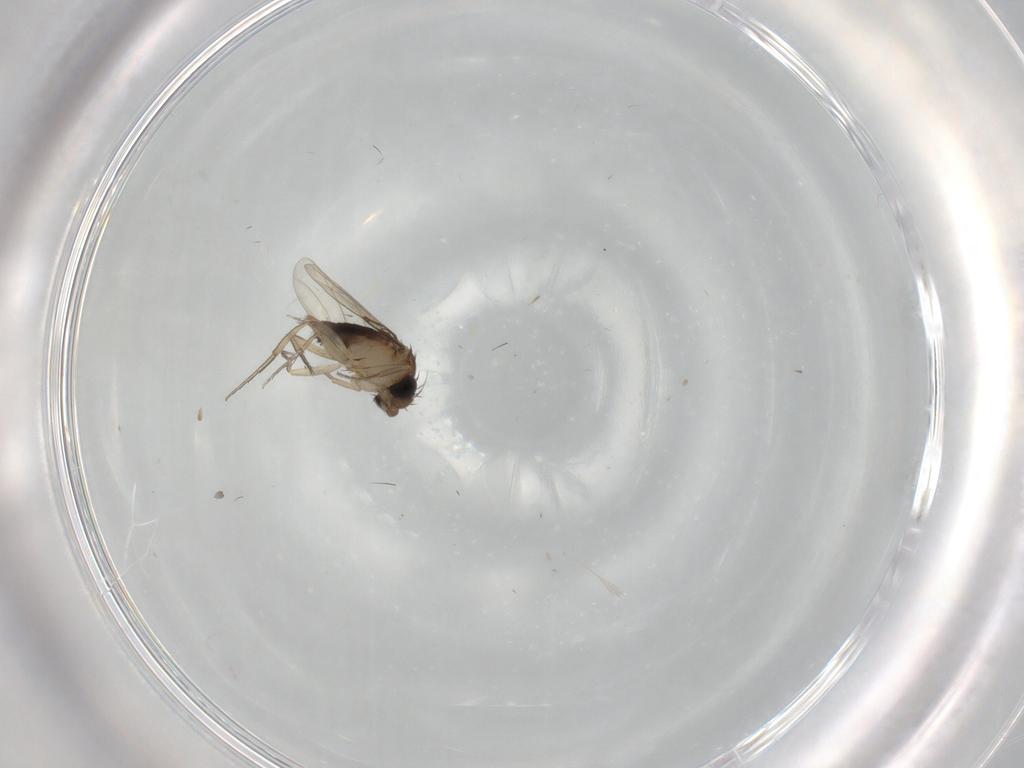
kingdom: Animalia
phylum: Arthropoda
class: Insecta
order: Diptera
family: Chironomidae
